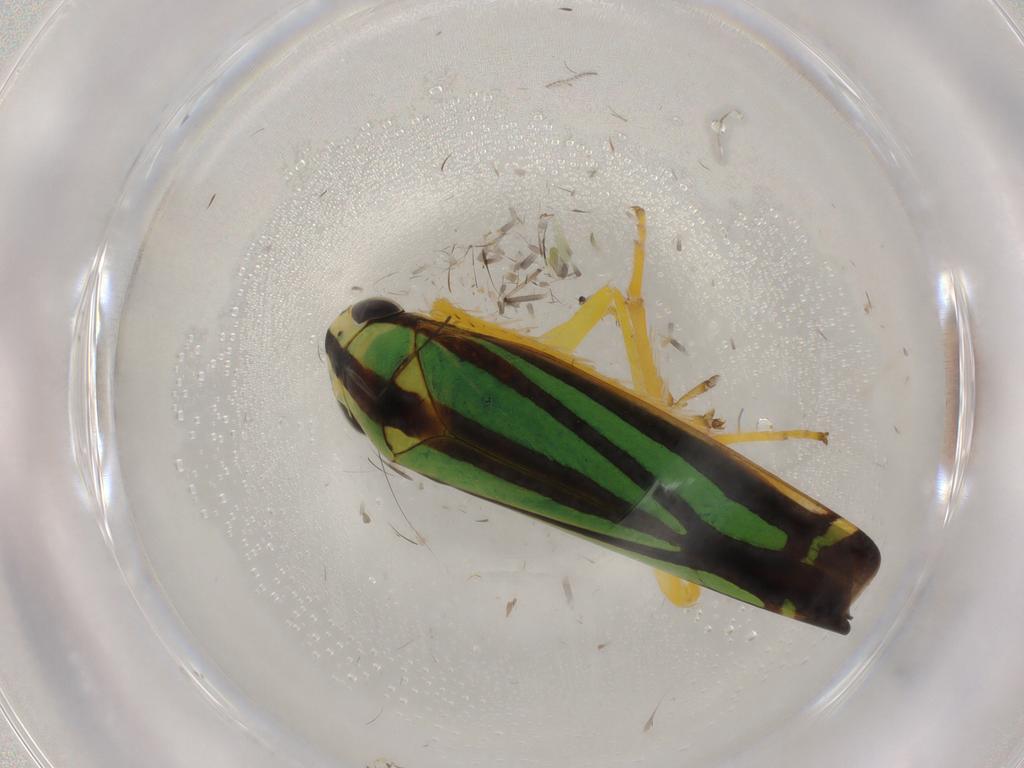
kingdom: Animalia
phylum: Arthropoda
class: Insecta
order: Hemiptera
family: Cicadellidae
